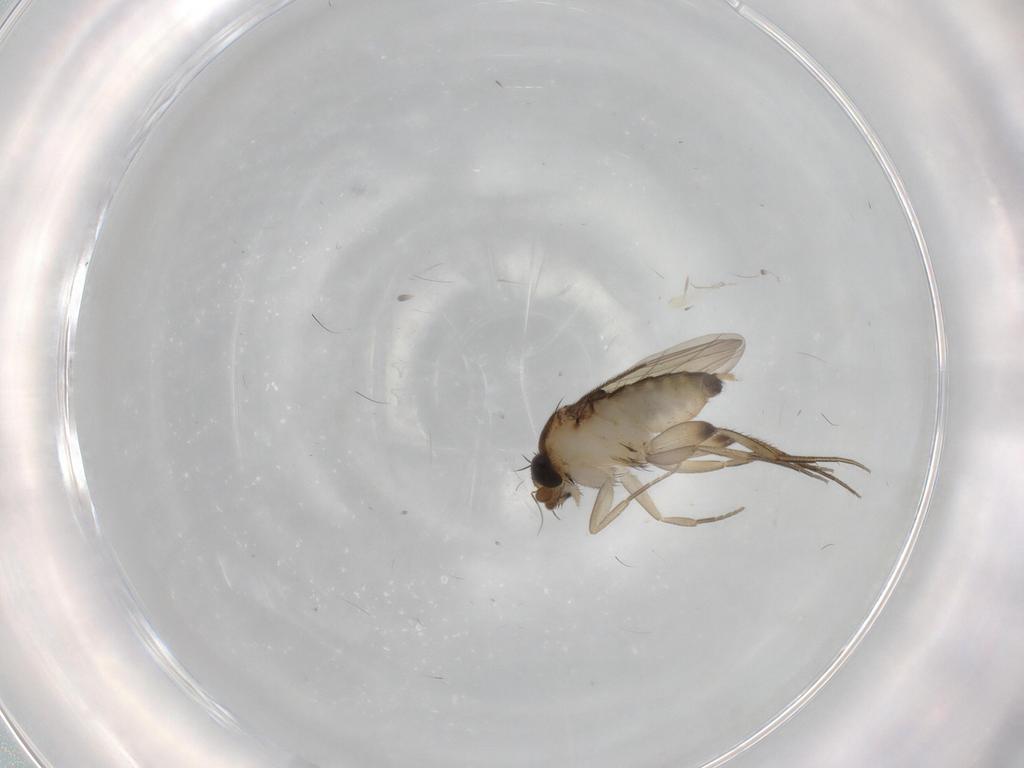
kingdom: Animalia
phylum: Arthropoda
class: Insecta
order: Diptera
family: Phoridae
